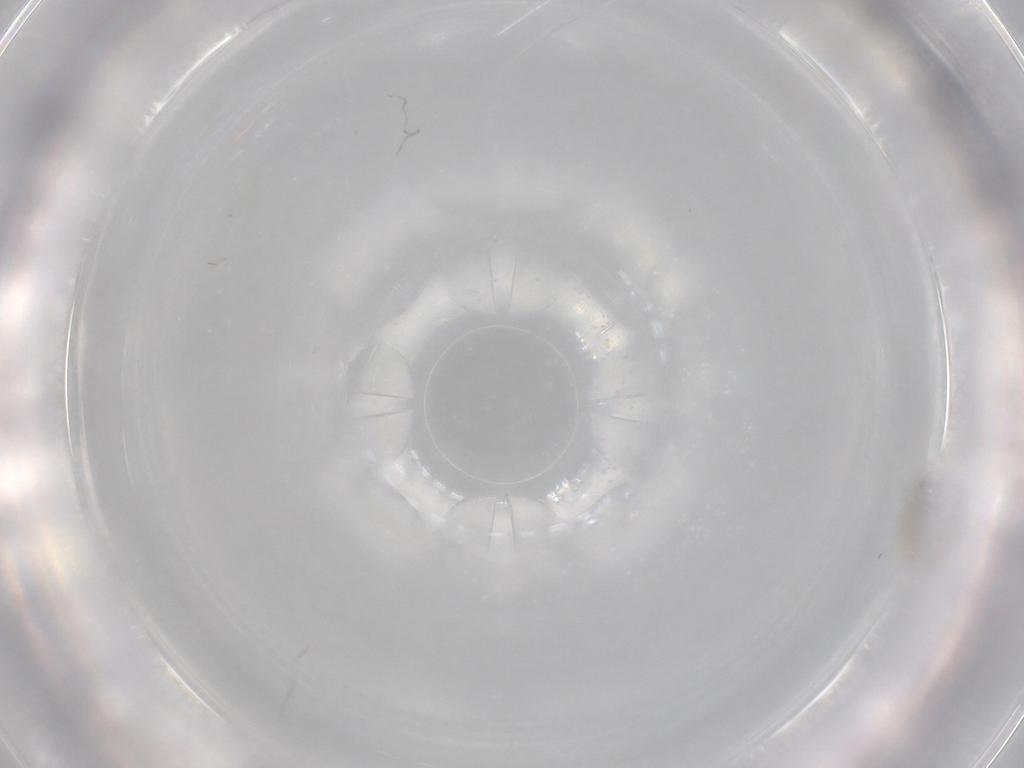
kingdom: Animalia
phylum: Arthropoda
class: Insecta
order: Diptera
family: Cecidomyiidae
